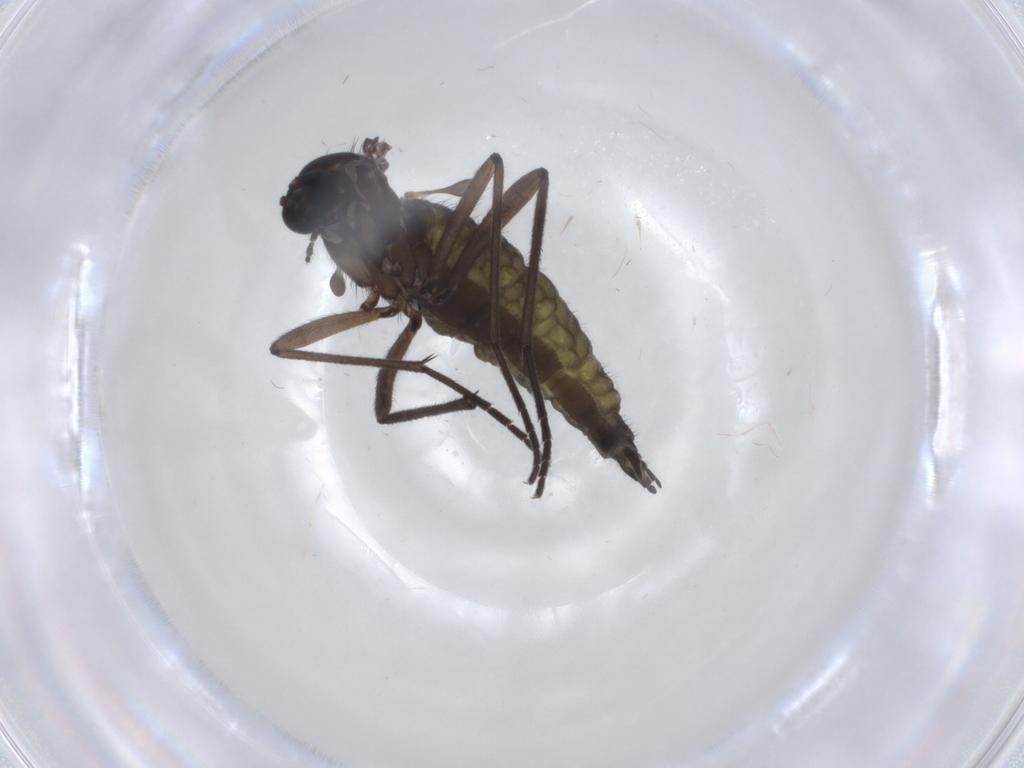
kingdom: Animalia
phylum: Arthropoda
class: Insecta
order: Diptera
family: Sciaridae
